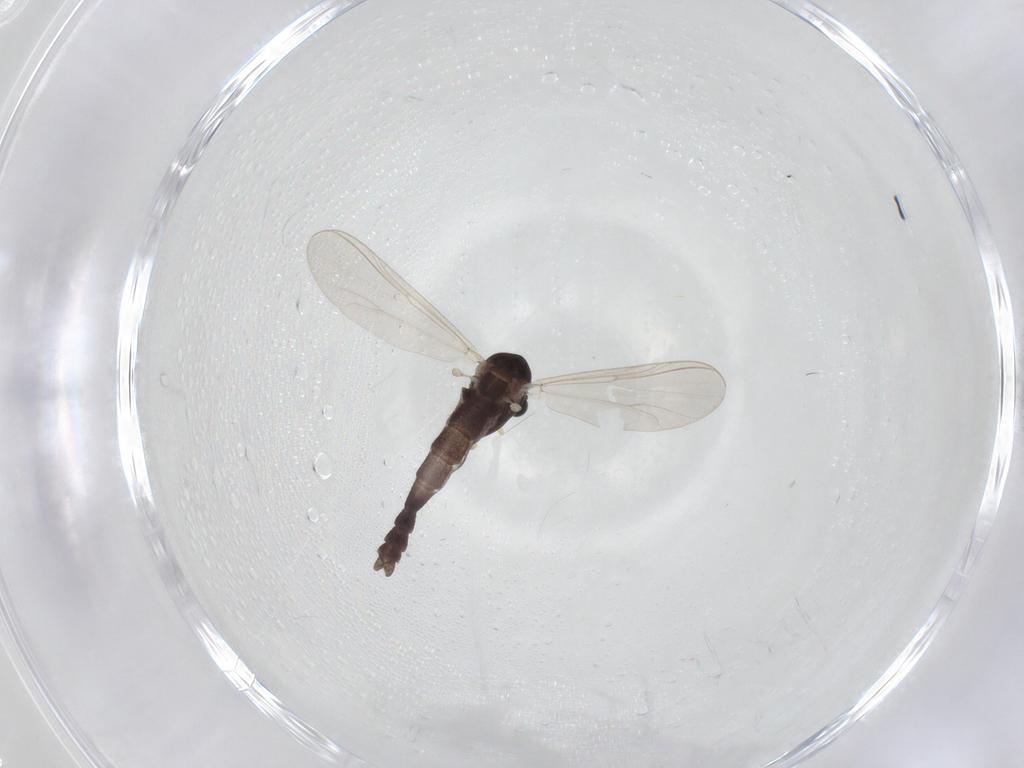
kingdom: Animalia
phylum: Arthropoda
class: Insecta
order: Diptera
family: Chironomidae
